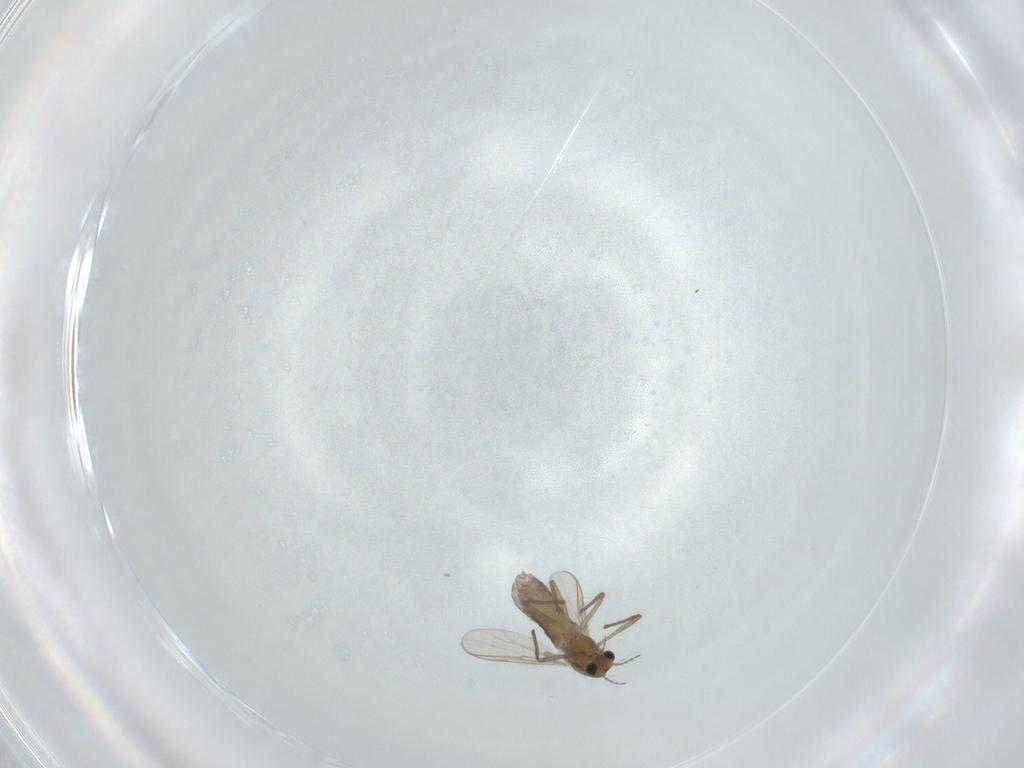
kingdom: Animalia
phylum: Arthropoda
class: Insecta
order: Diptera
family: Chironomidae
